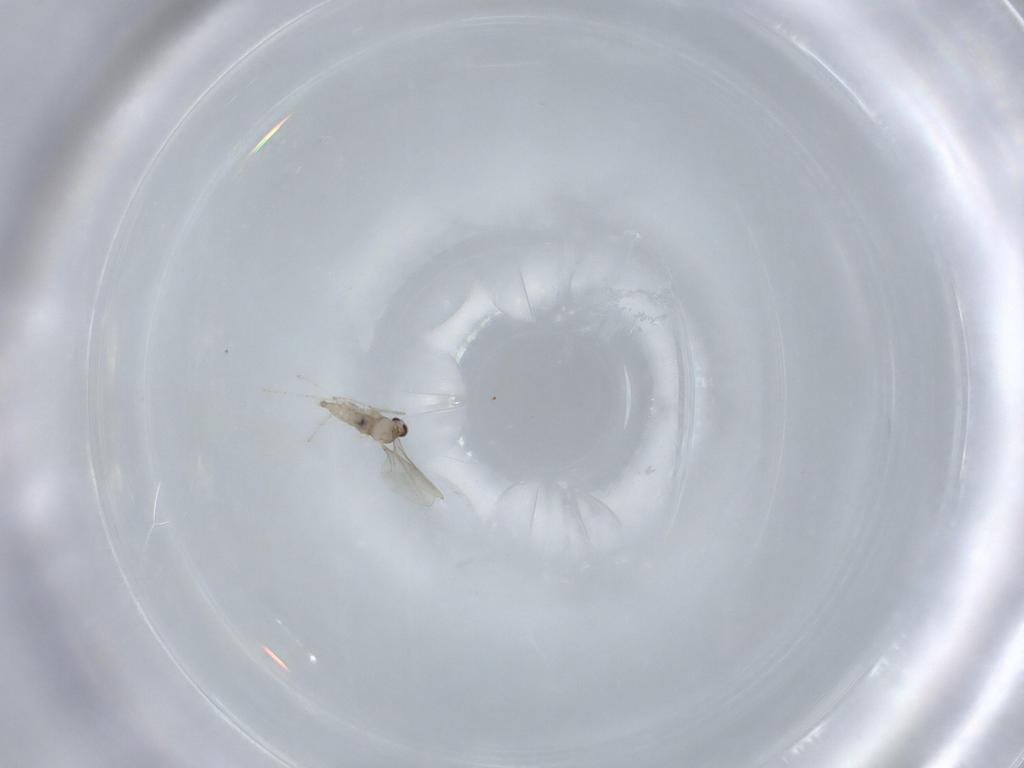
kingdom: Animalia
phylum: Arthropoda
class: Insecta
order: Diptera
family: Cecidomyiidae
